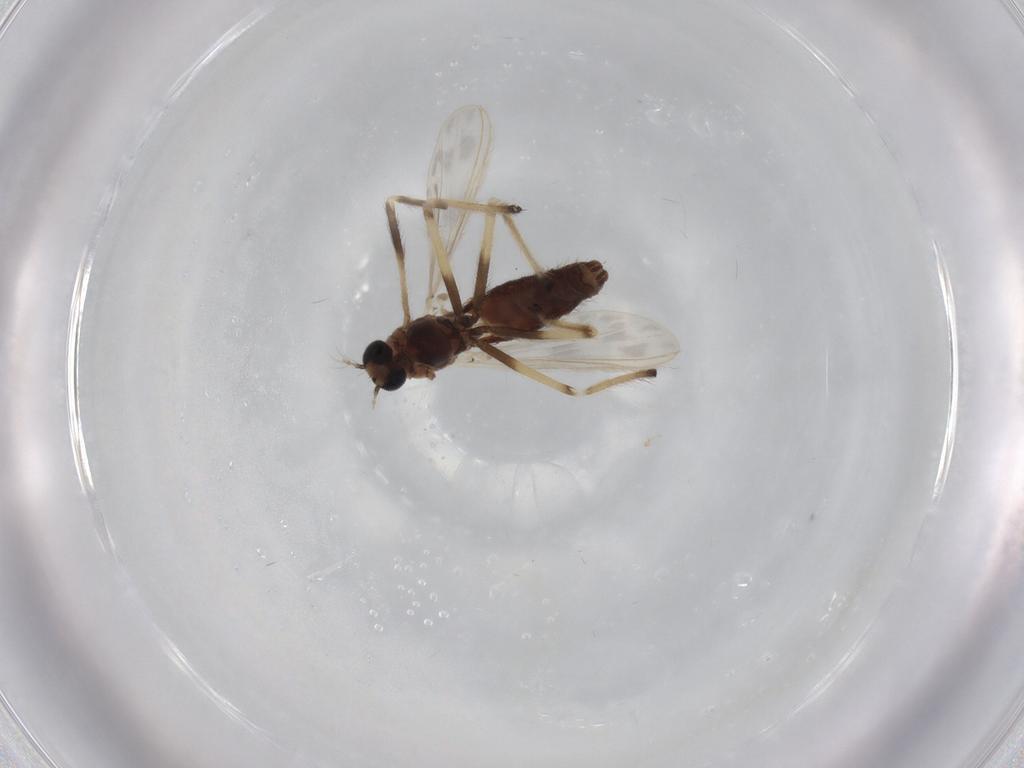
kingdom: Animalia
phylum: Arthropoda
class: Insecta
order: Diptera
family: Chironomidae
